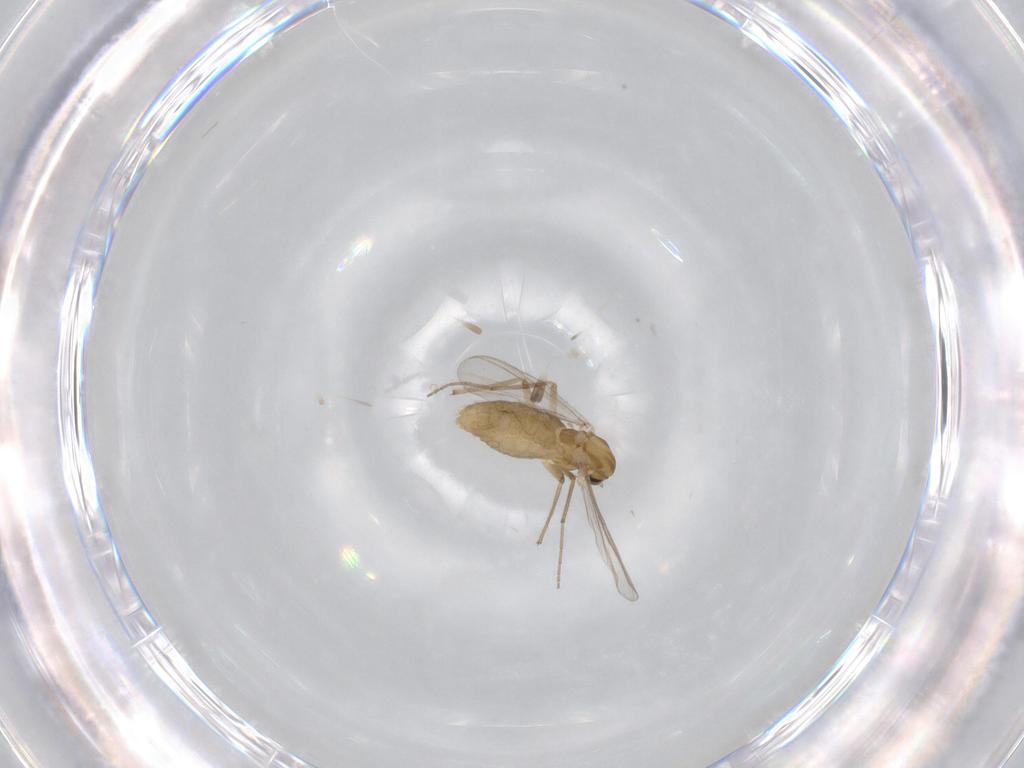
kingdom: Animalia
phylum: Arthropoda
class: Insecta
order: Diptera
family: Chironomidae
